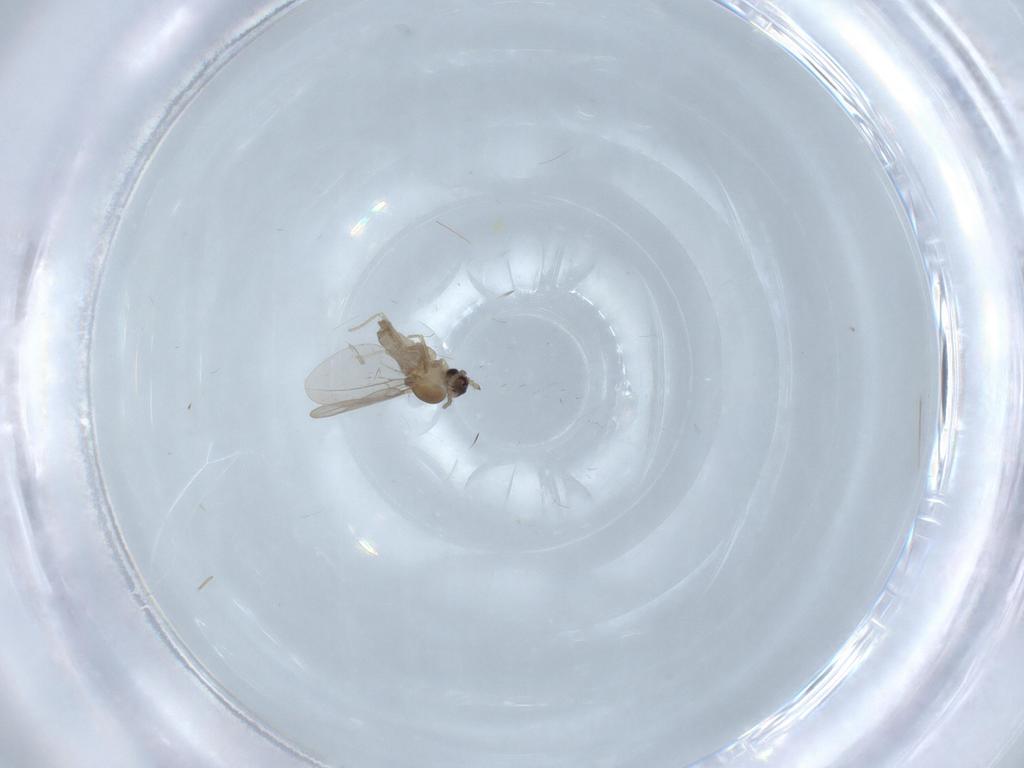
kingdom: Animalia
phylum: Arthropoda
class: Insecta
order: Diptera
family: Cecidomyiidae
